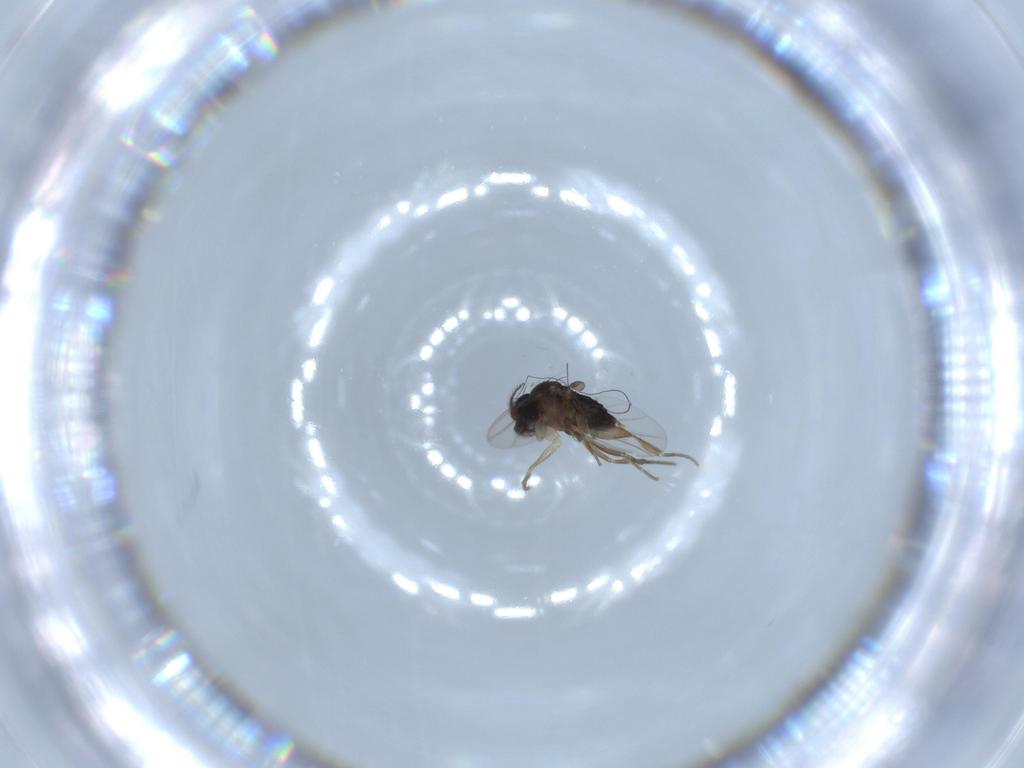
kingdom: Animalia
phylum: Arthropoda
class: Insecta
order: Diptera
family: Phoridae
